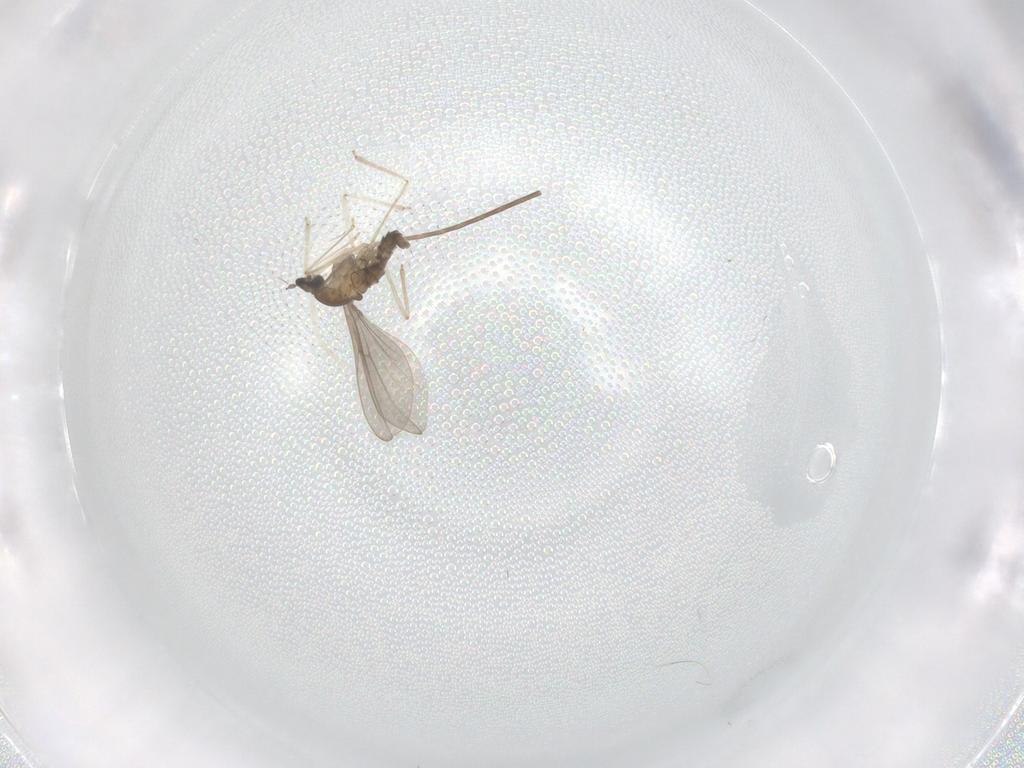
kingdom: Animalia
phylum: Arthropoda
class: Insecta
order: Diptera
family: Cecidomyiidae
